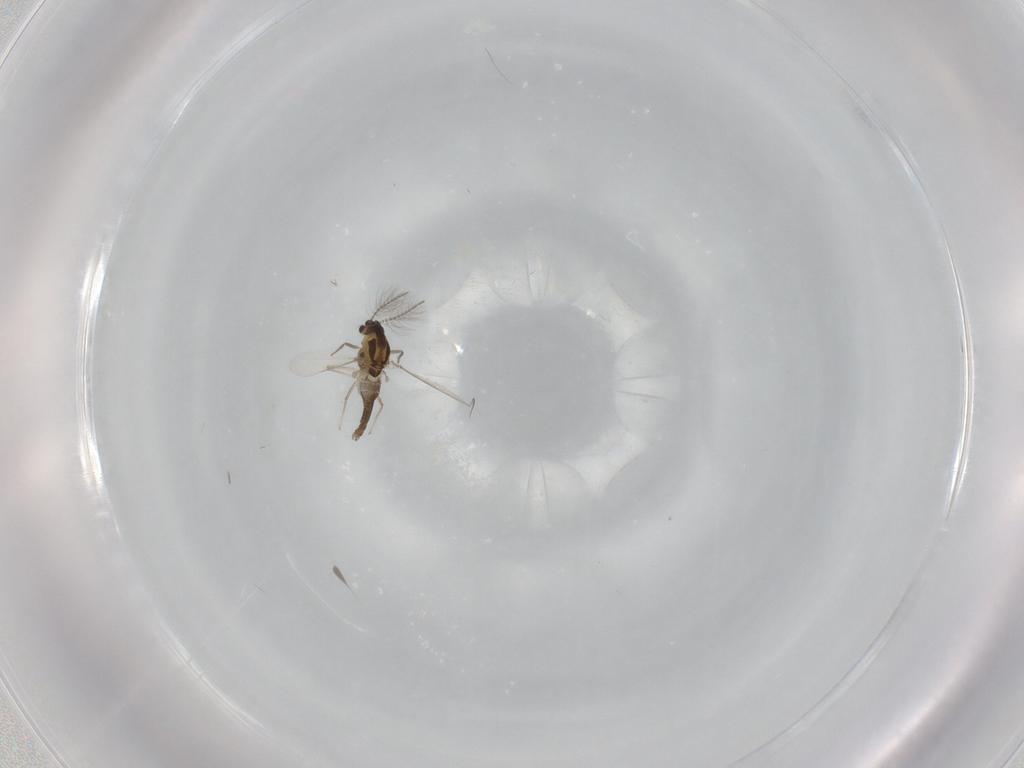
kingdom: Animalia
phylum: Arthropoda
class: Insecta
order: Diptera
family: Chironomidae
